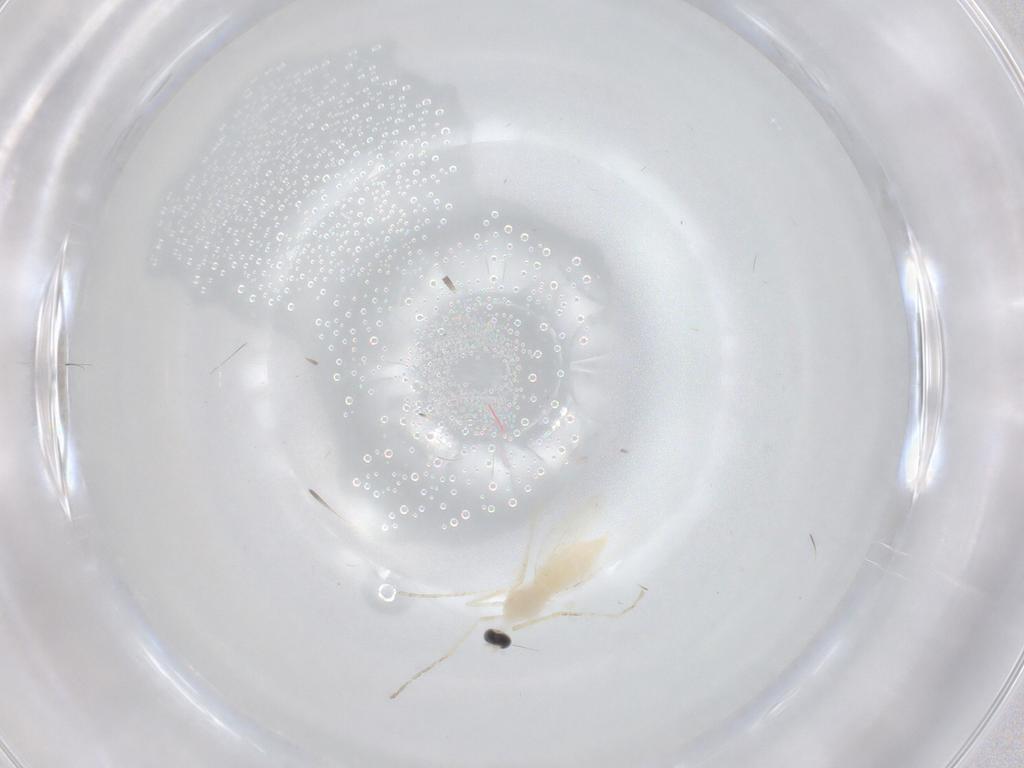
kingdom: Animalia
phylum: Arthropoda
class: Insecta
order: Diptera
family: Cecidomyiidae
